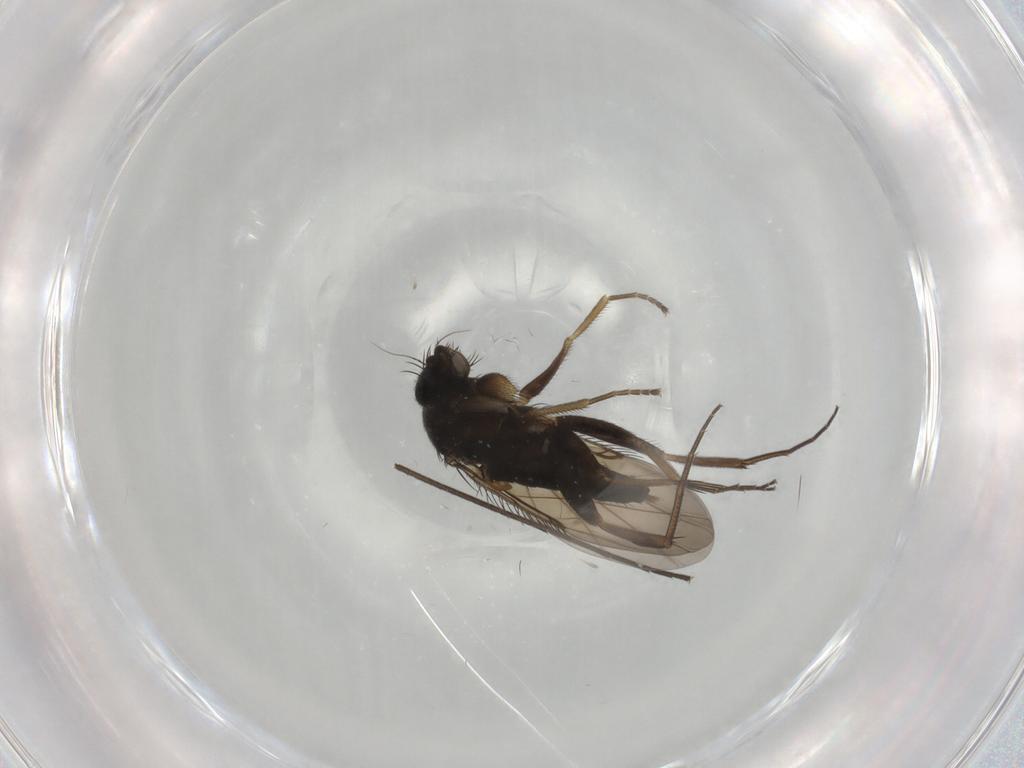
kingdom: Animalia
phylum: Arthropoda
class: Insecta
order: Diptera
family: Phoridae
